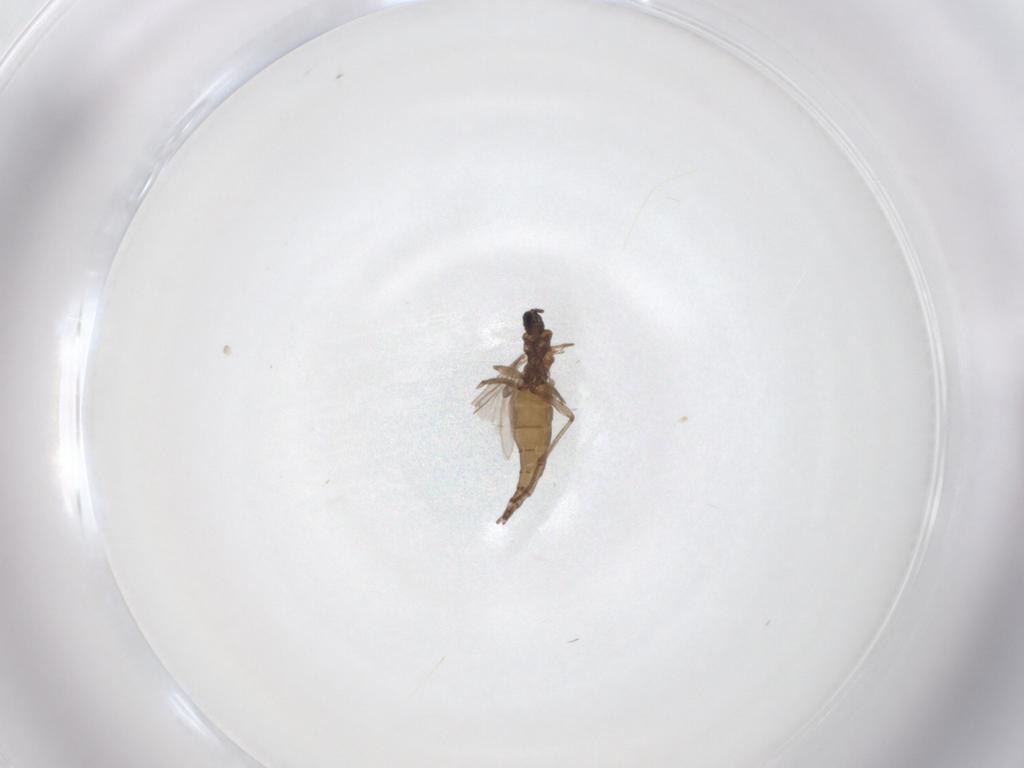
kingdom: Animalia
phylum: Arthropoda
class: Insecta
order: Diptera
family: Sciaridae
